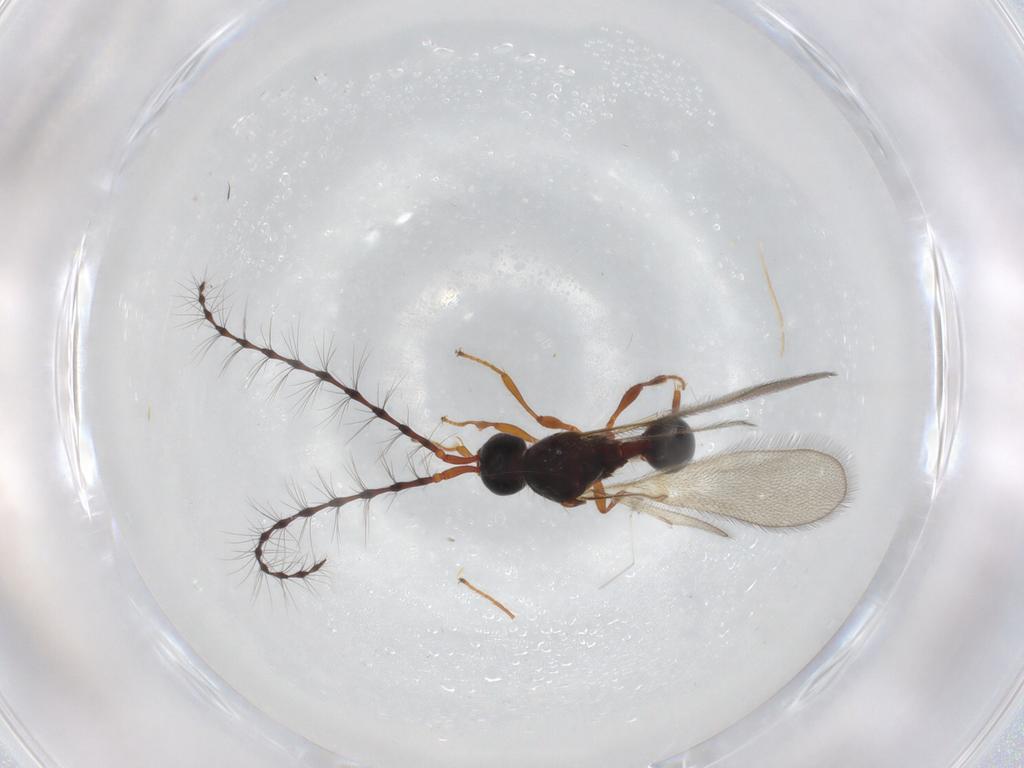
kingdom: Animalia
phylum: Arthropoda
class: Insecta
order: Hymenoptera
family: Diapriidae
